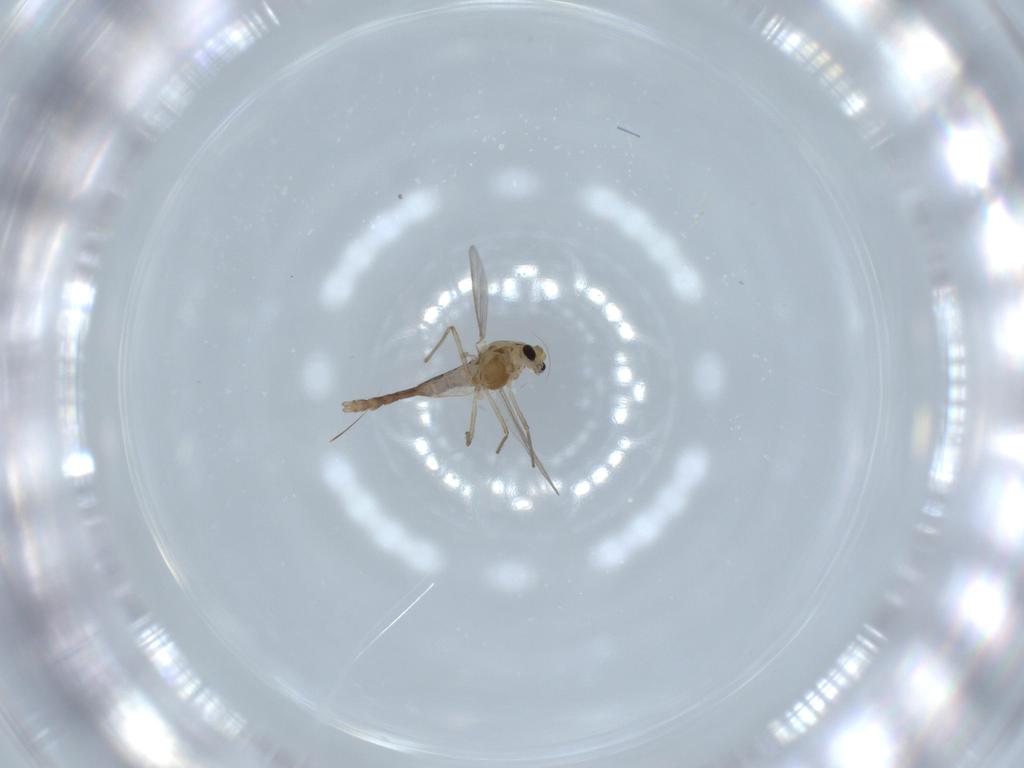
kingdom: Animalia
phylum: Arthropoda
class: Insecta
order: Diptera
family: Chironomidae
